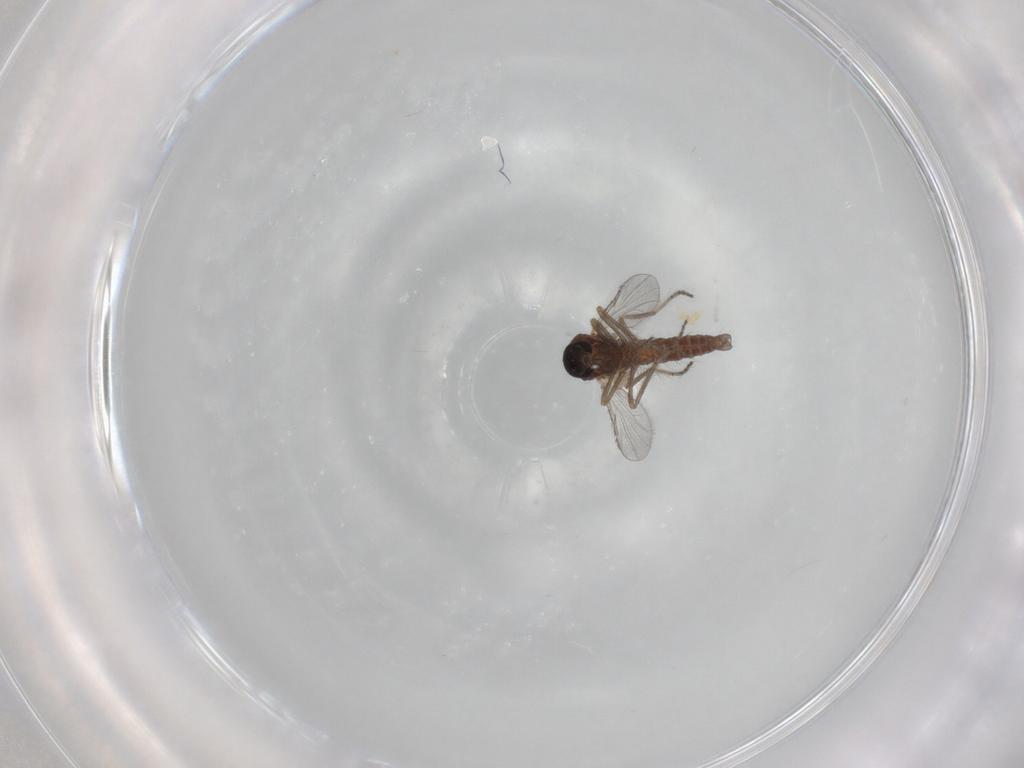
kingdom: Animalia
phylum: Arthropoda
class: Insecta
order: Diptera
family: Ceratopogonidae
